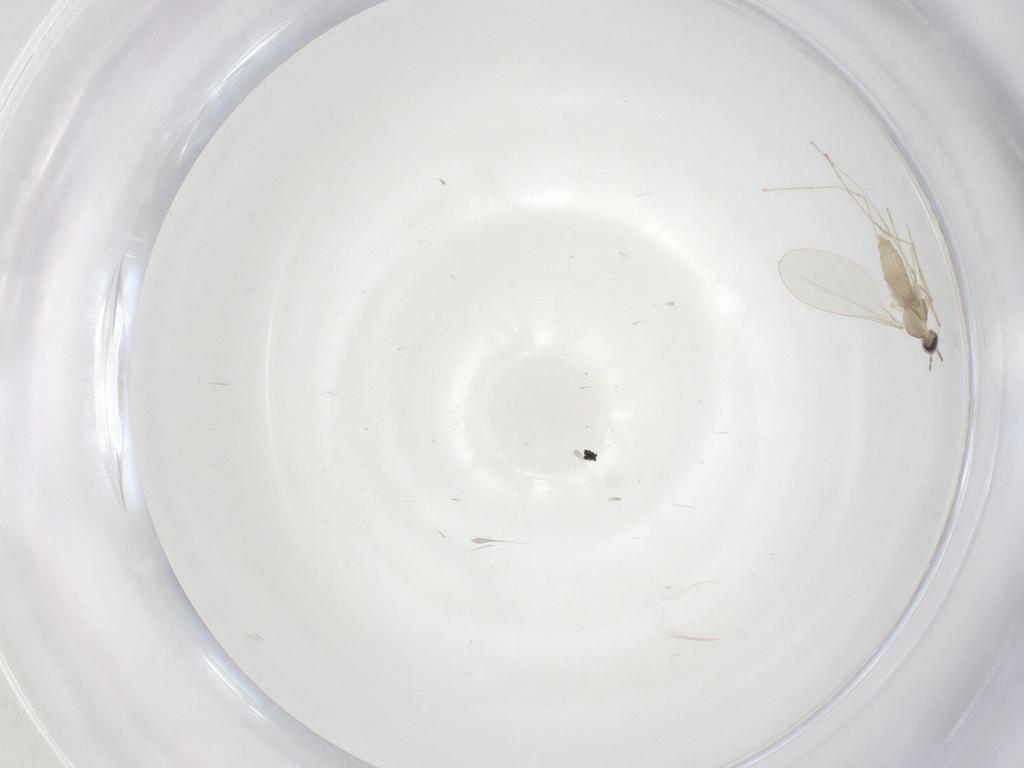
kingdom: Animalia
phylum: Arthropoda
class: Insecta
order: Diptera
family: Cecidomyiidae
